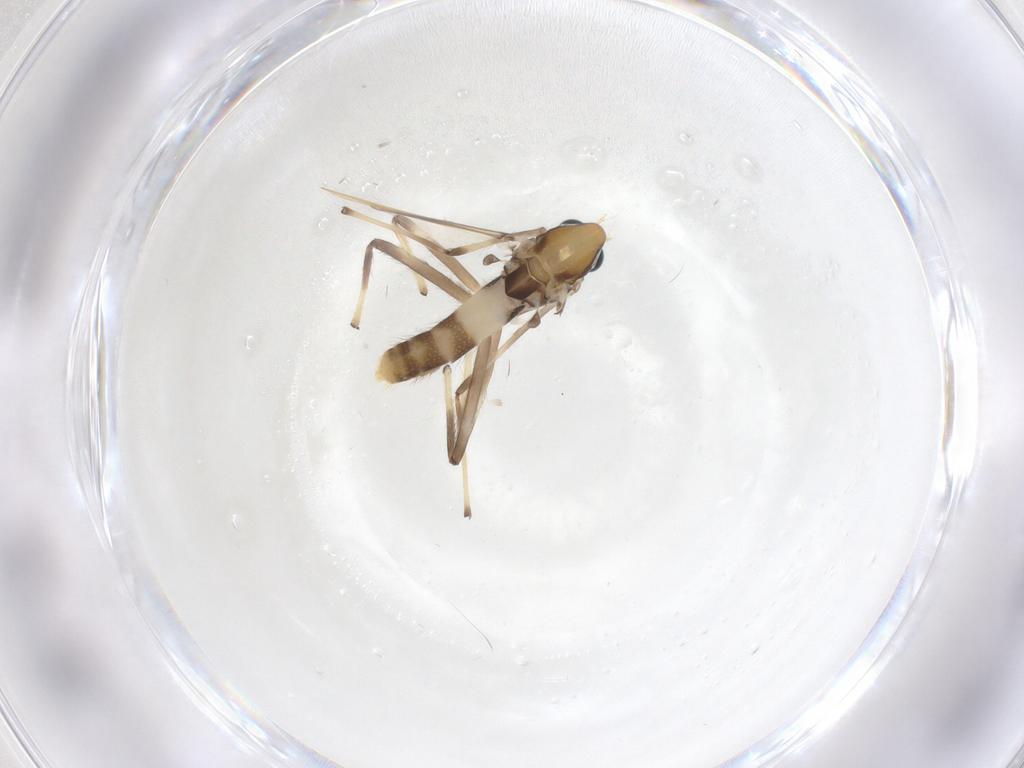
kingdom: Animalia
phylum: Arthropoda
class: Insecta
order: Diptera
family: Chironomidae
